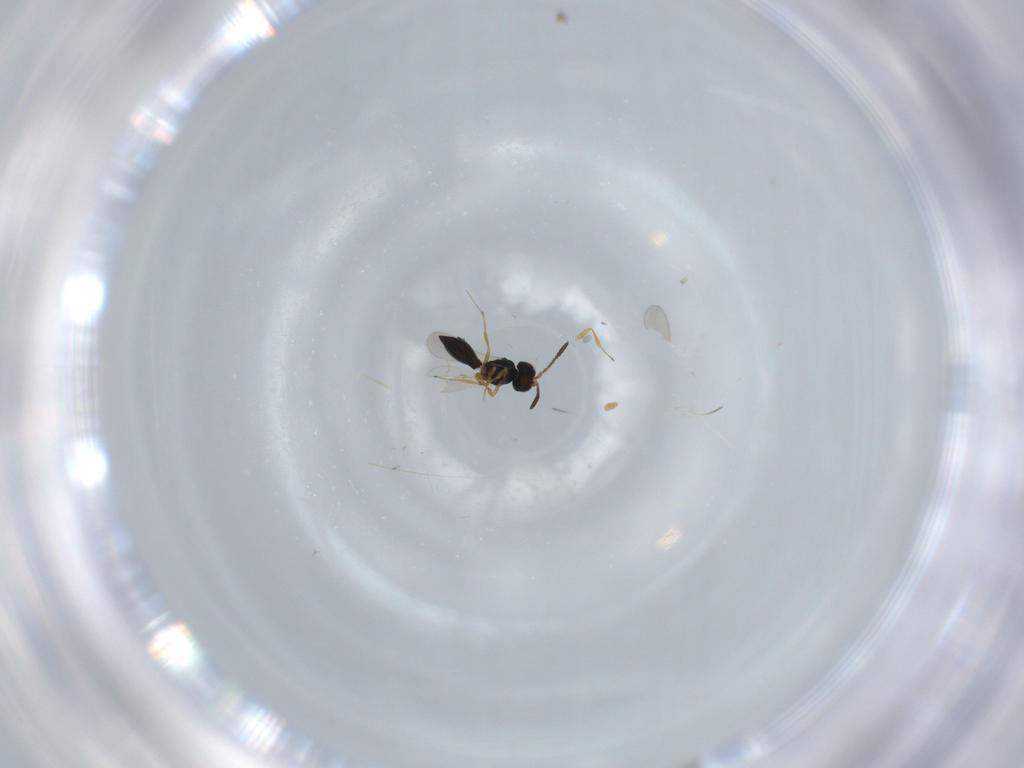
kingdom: Animalia
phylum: Arthropoda
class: Insecta
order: Hymenoptera
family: Scelionidae
